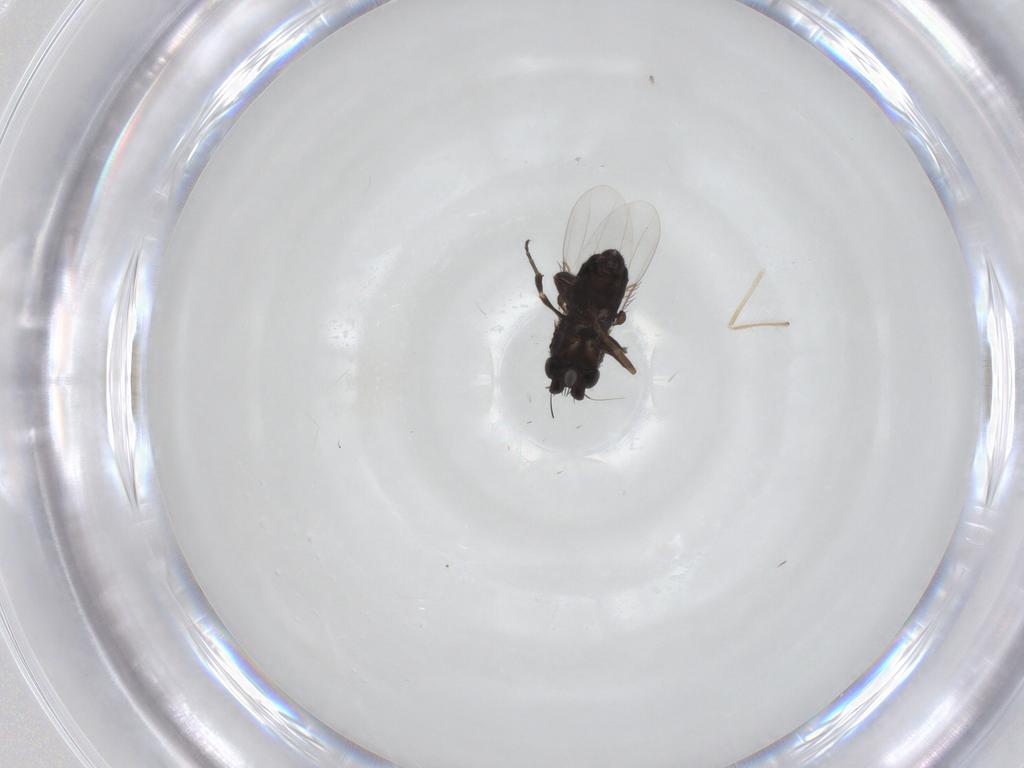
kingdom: Animalia
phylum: Arthropoda
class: Insecta
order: Diptera
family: Phoridae
